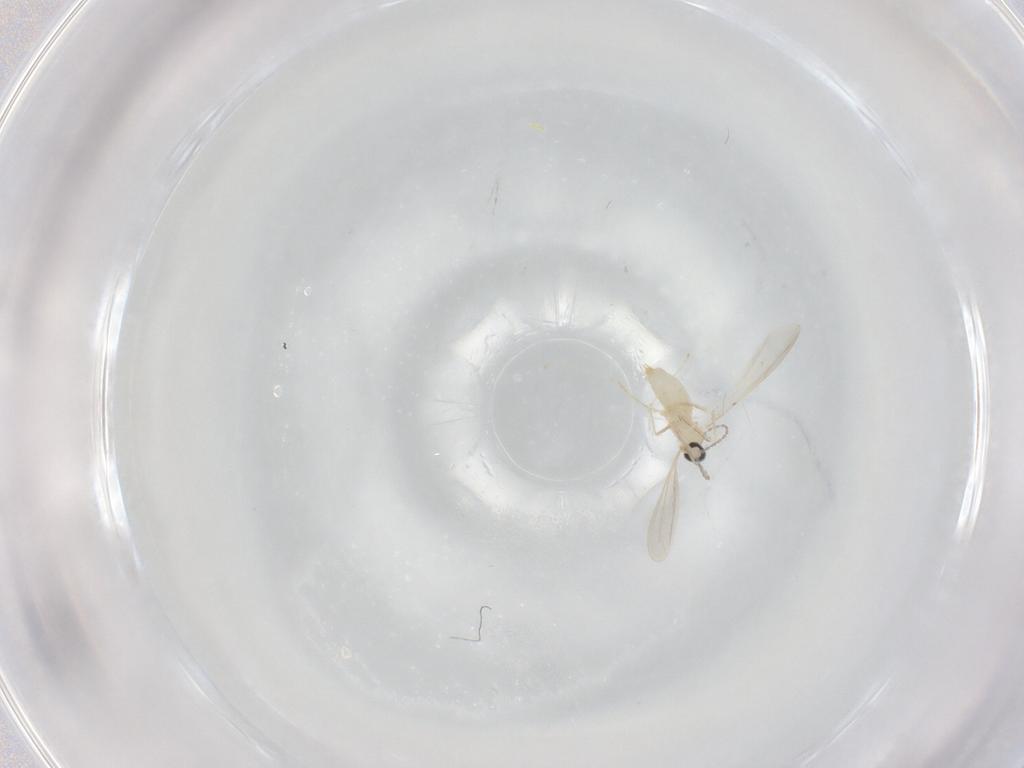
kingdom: Animalia
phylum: Arthropoda
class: Insecta
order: Diptera
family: Cecidomyiidae
